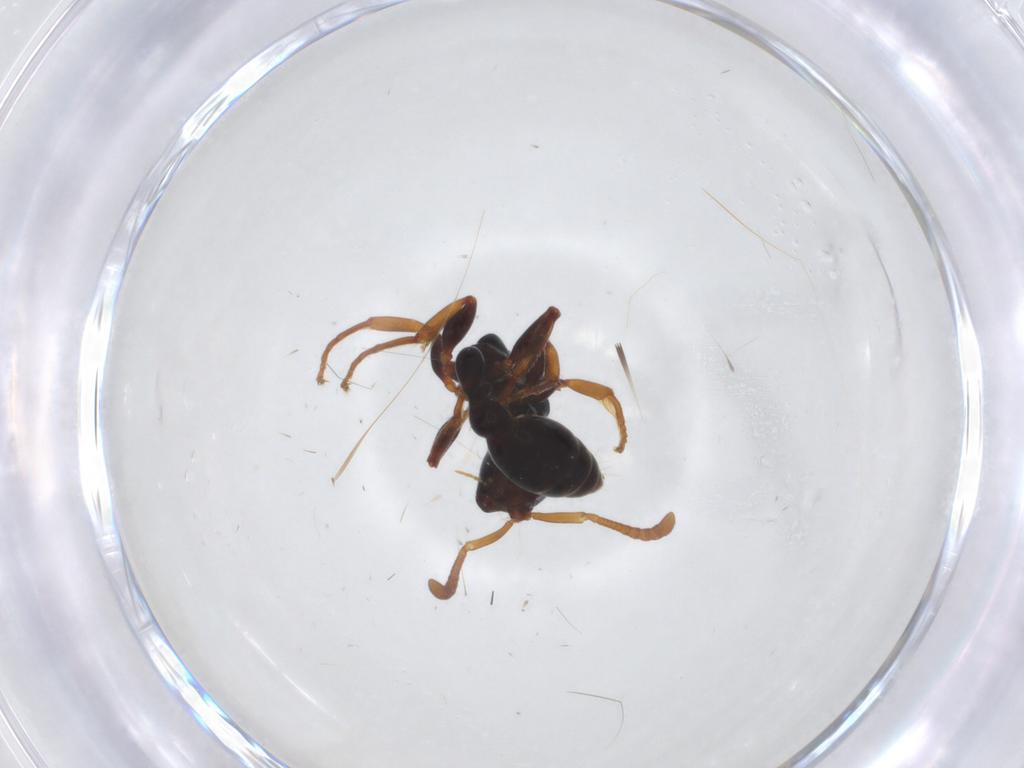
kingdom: Animalia
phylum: Arthropoda
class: Insecta
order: Hymenoptera
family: Formicidae
